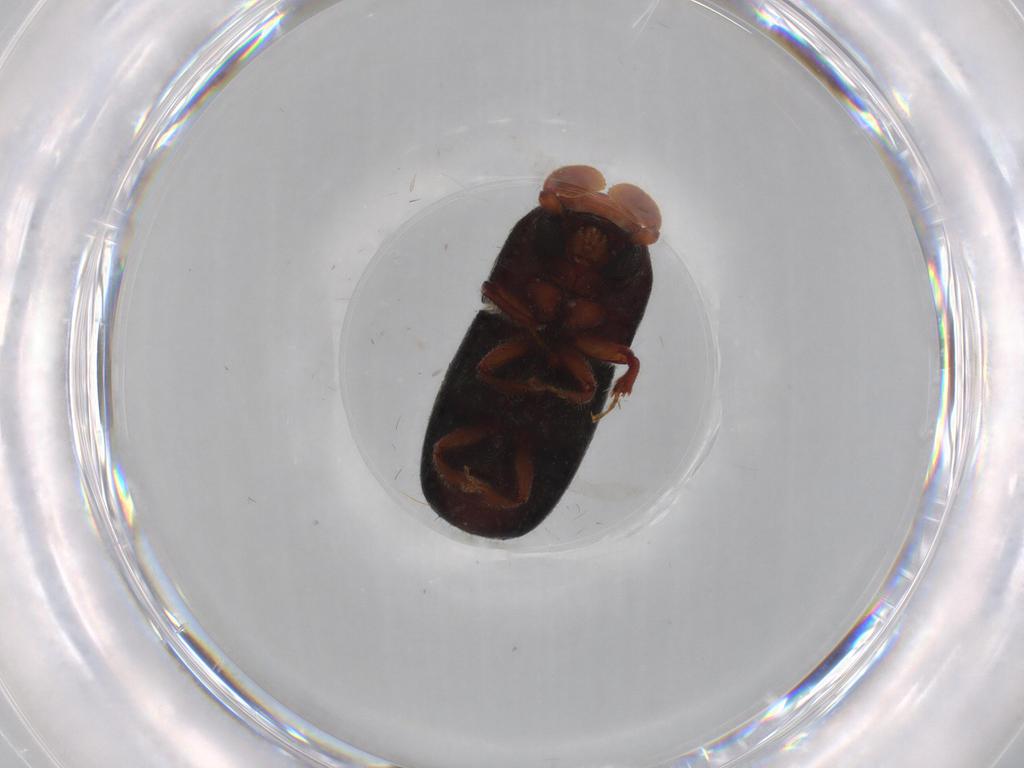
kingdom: Animalia
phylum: Arthropoda
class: Insecta
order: Coleoptera
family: Curculionidae
